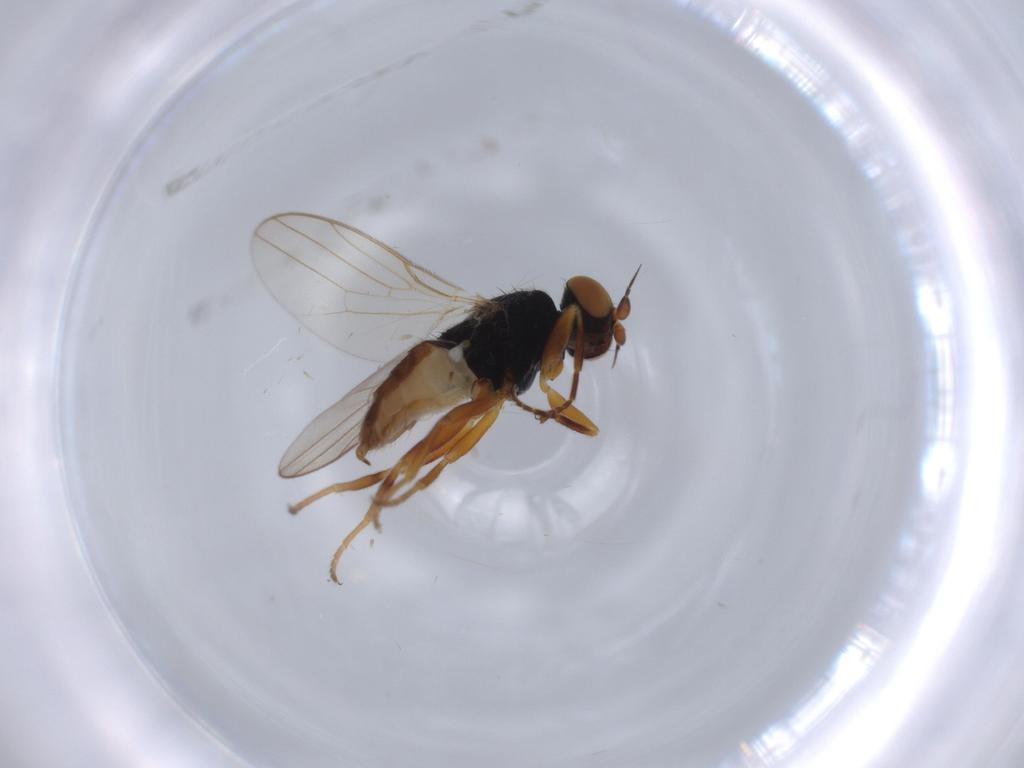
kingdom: Animalia
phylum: Arthropoda
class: Insecta
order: Diptera
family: Chloropidae
